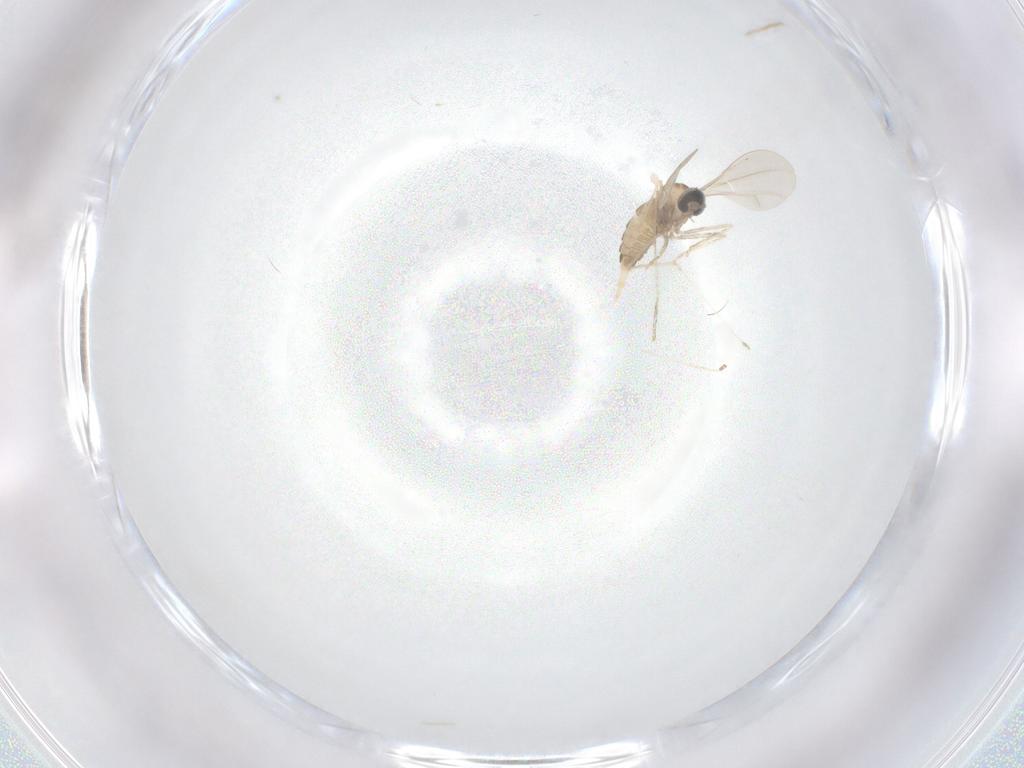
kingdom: Animalia
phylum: Arthropoda
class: Insecta
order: Diptera
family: Cecidomyiidae
